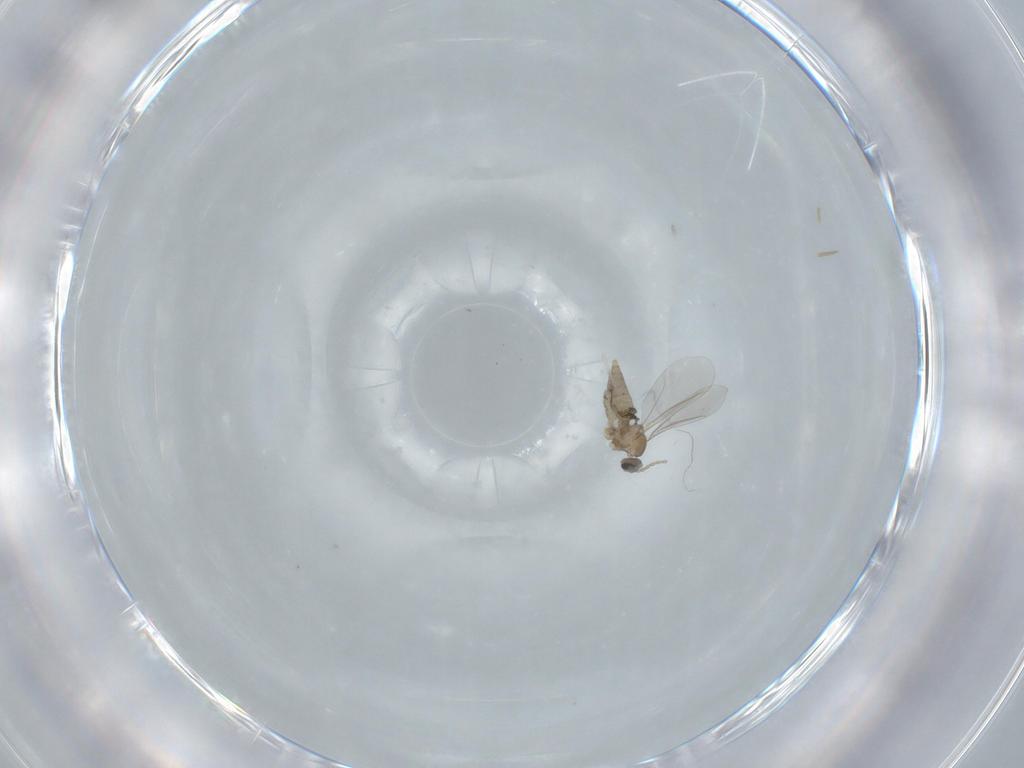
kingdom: Animalia
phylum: Arthropoda
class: Insecta
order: Diptera
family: Cecidomyiidae
